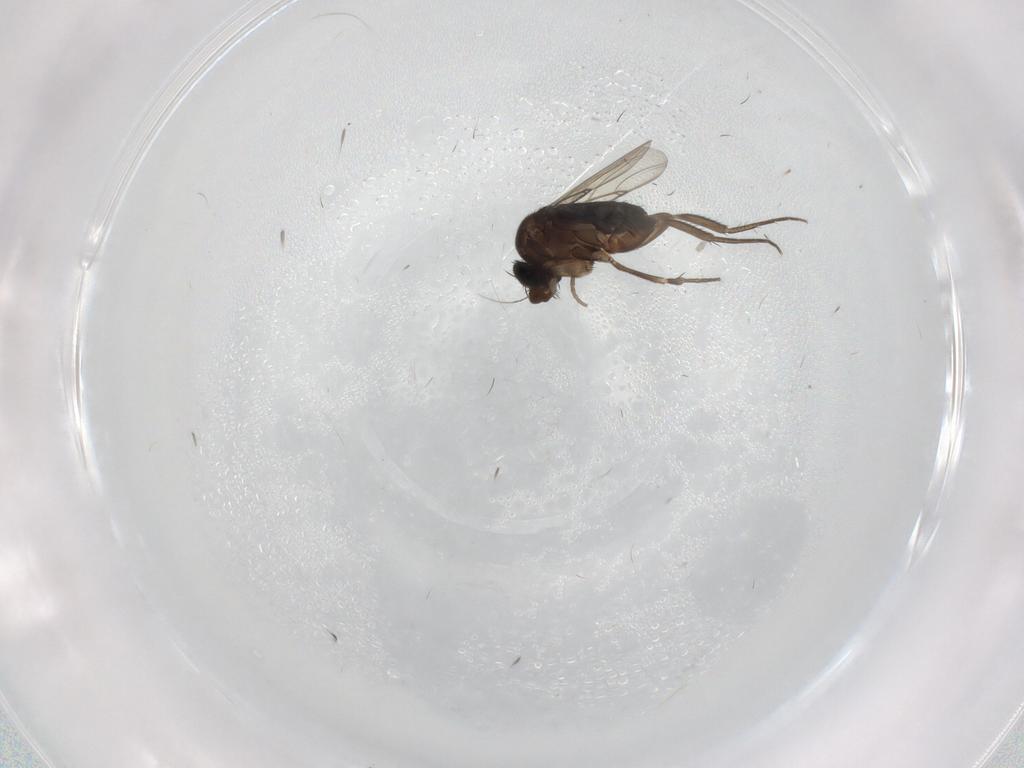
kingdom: Animalia
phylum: Arthropoda
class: Insecta
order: Diptera
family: Phoridae
